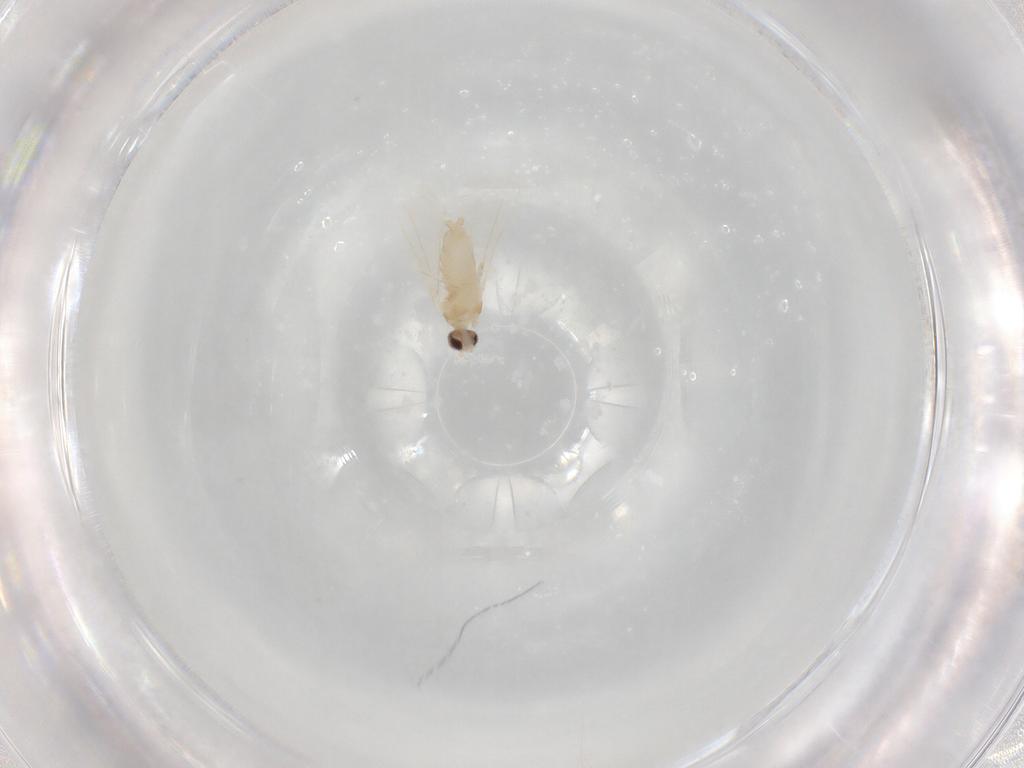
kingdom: Animalia
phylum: Arthropoda
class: Insecta
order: Diptera
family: Cecidomyiidae
